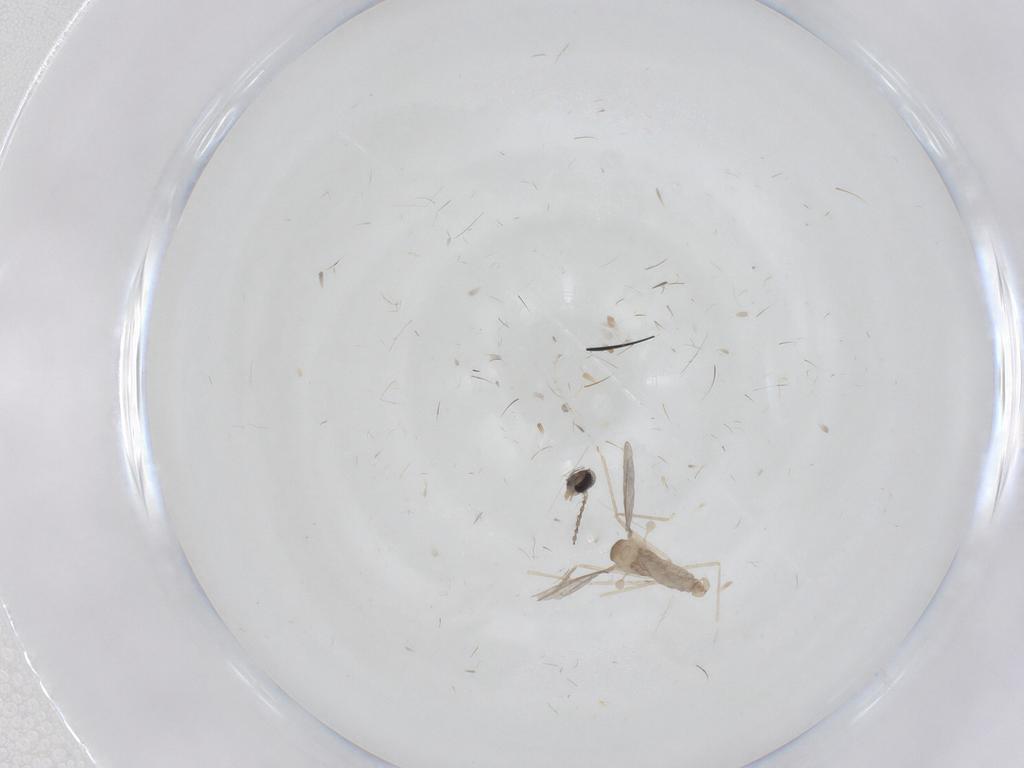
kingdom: Animalia
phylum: Arthropoda
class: Insecta
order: Diptera
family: Cecidomyiidae
